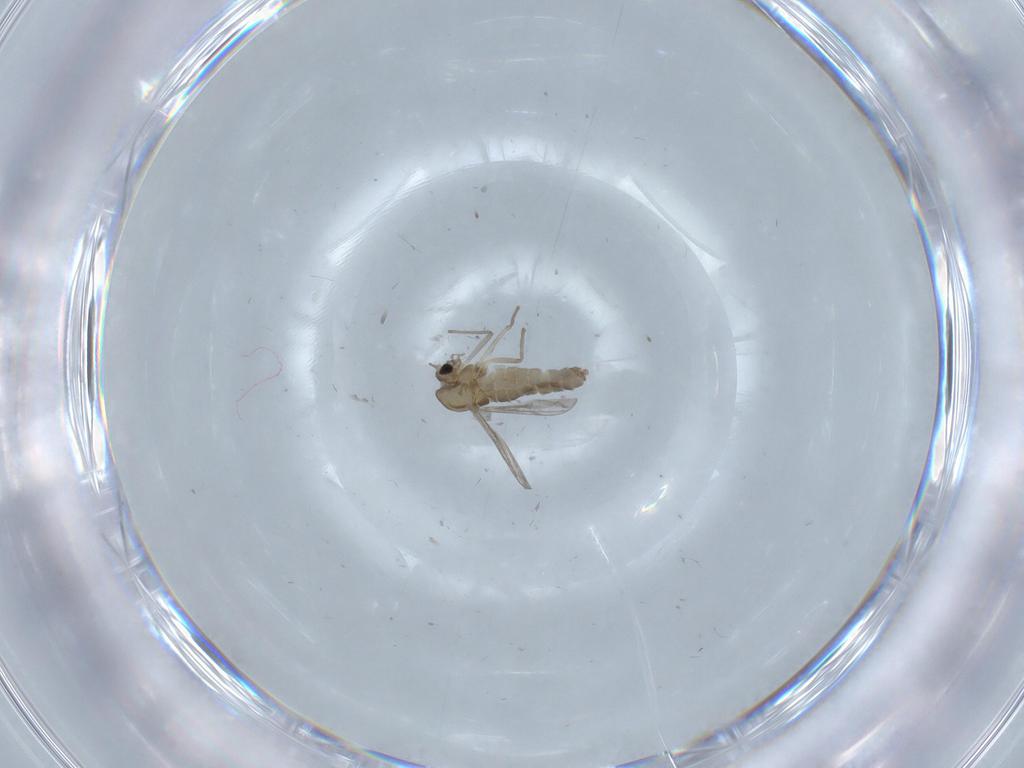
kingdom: Animalia
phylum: Arthropoda
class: Insecta
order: Diptera
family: Chironomidae
